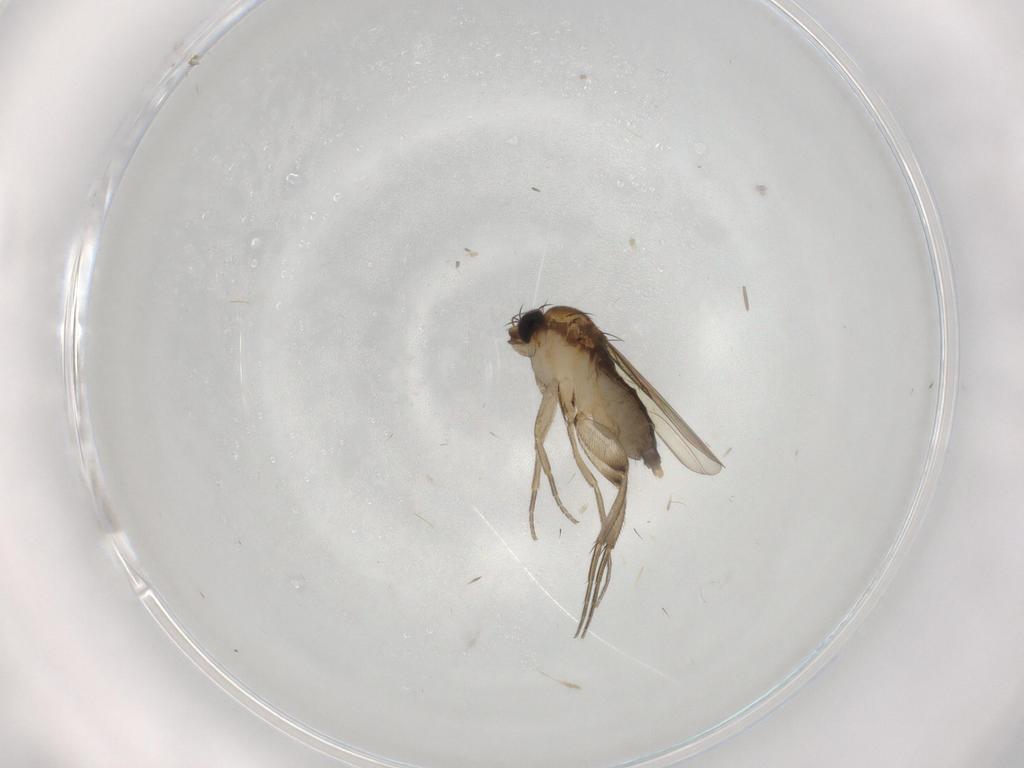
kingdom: Animalia
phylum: Arthropoda
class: Insecta
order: Diptera
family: Phoridae
